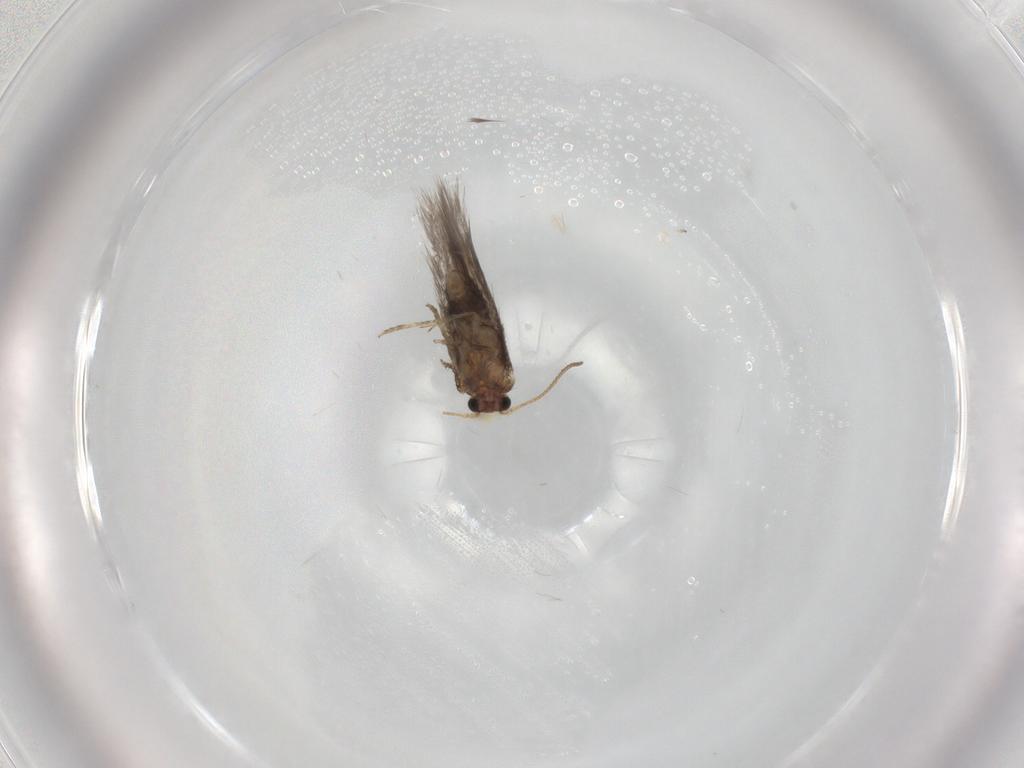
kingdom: Animalia
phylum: Arthropoda
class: Insecta
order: Lepidoptera
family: Nepticulidae
